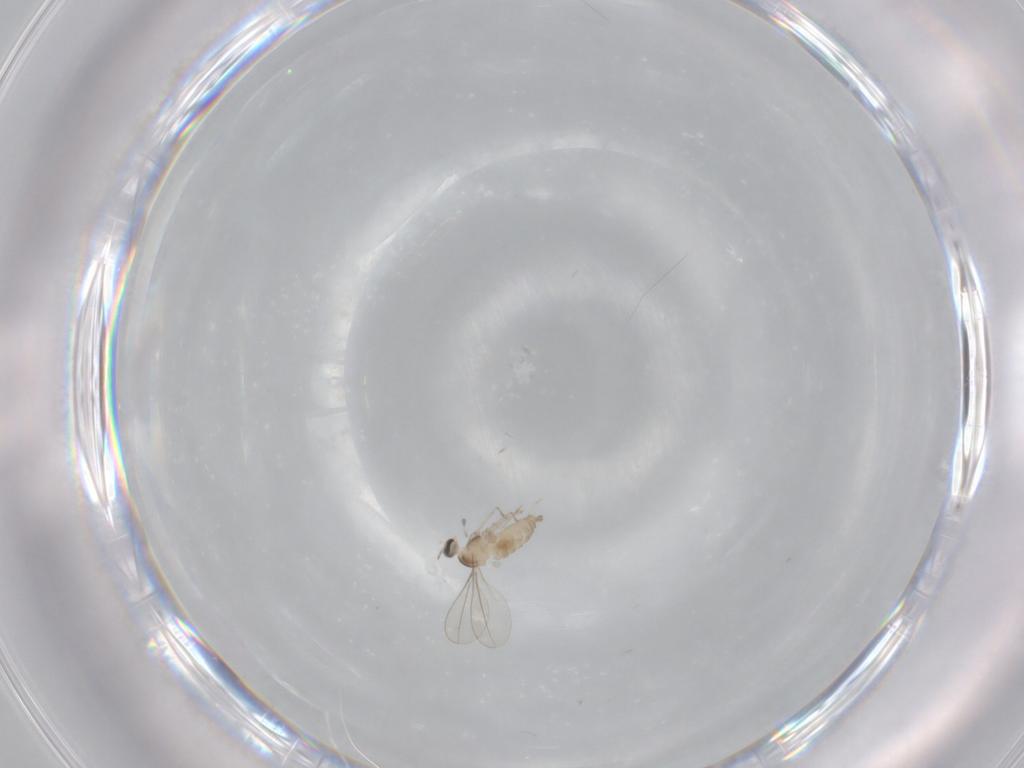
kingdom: Animalia
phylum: Arthropoda
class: Insecta
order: Diptera
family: Cecidomyiidae
